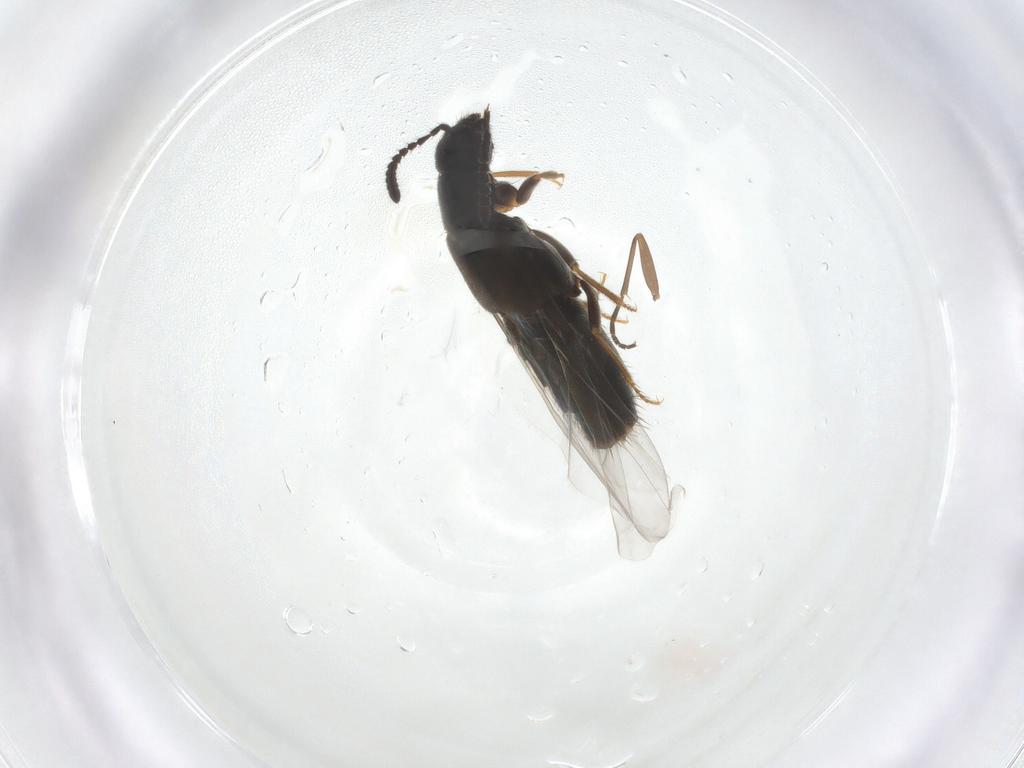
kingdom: Animalia
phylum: Arthropoda
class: Insecta
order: Coleoptera
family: Staphylinidae
